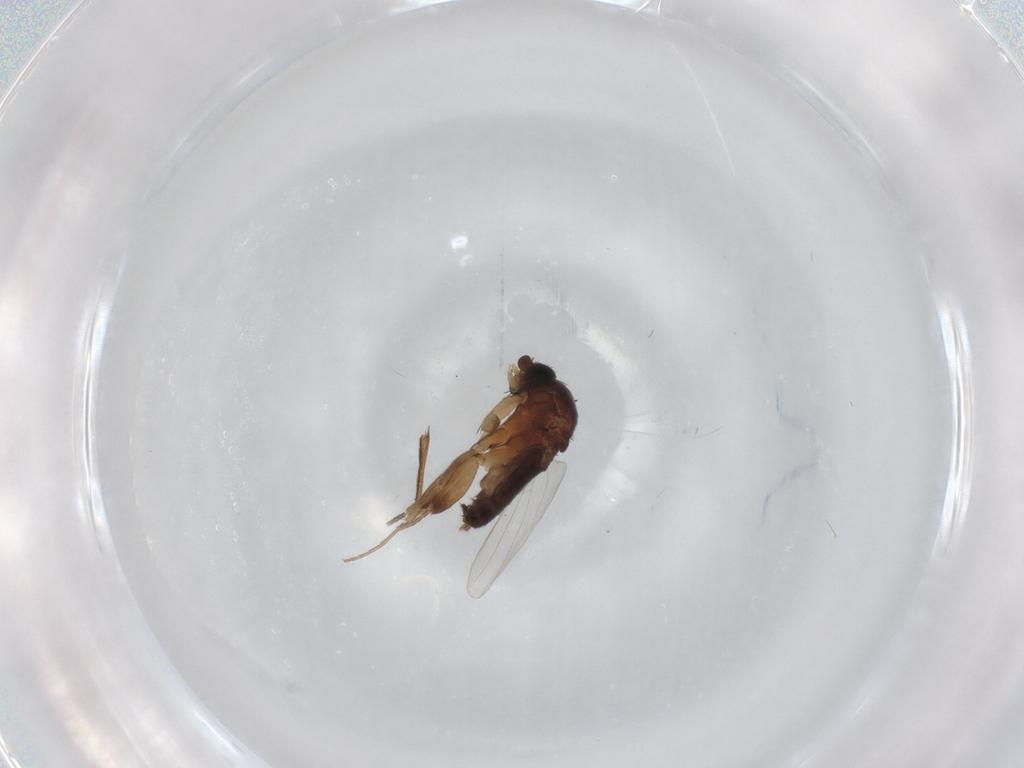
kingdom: Animalia
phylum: Arthropoda
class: Insecta
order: Diptera
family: Phoridae
